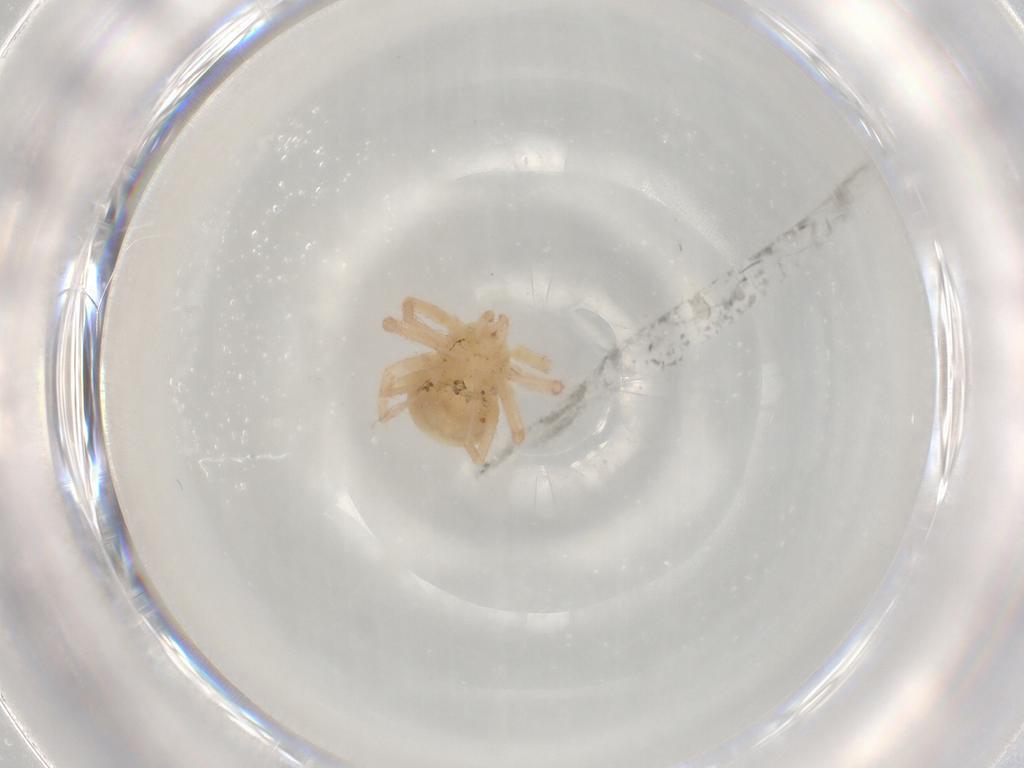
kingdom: Animalia
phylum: Arthropoda
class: Arachnida
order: Trombidiformes
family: Anystidae
